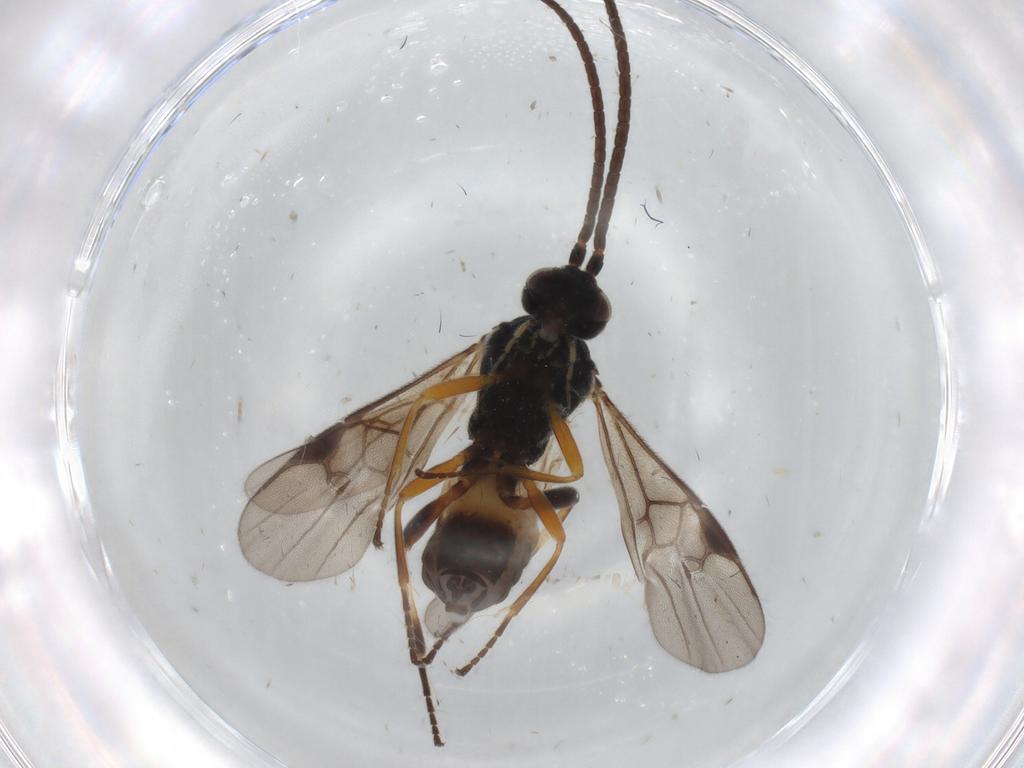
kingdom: Animalia
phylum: Arthropoda
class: Insecta
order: Hymenoptera
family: Braconidae
